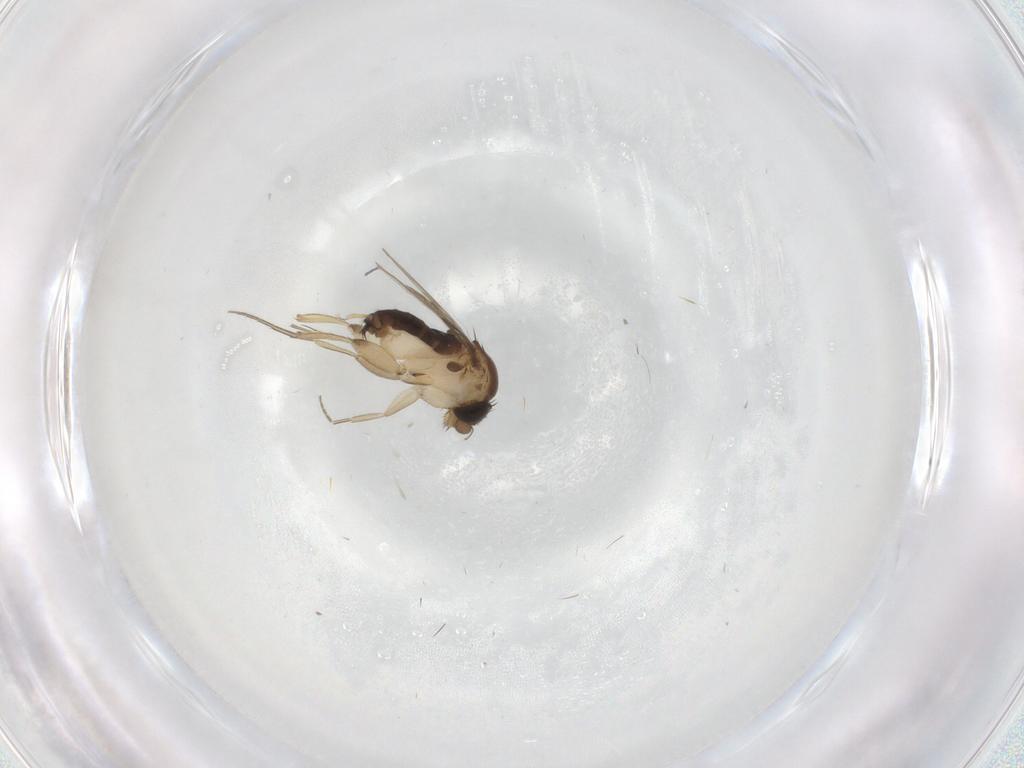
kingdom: Animalia
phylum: Arthropoda
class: Insecta
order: Diptera
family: Phoridae
